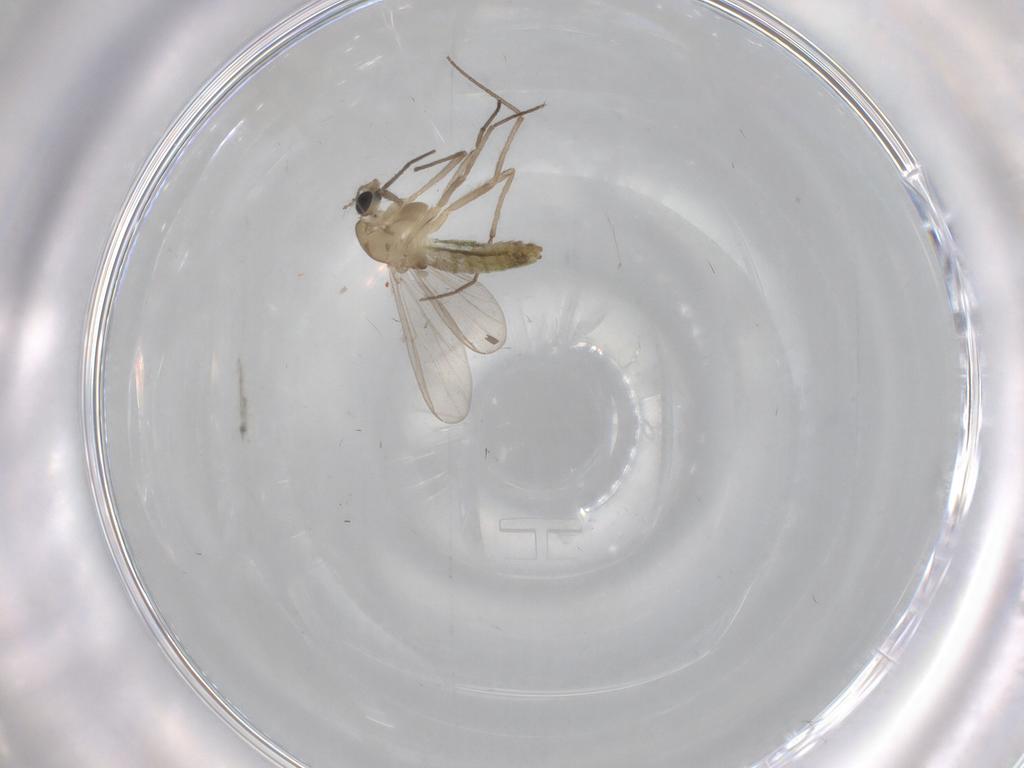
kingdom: Animalia
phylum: Arthropoda
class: Insecta
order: Diptera
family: Chironomidae
